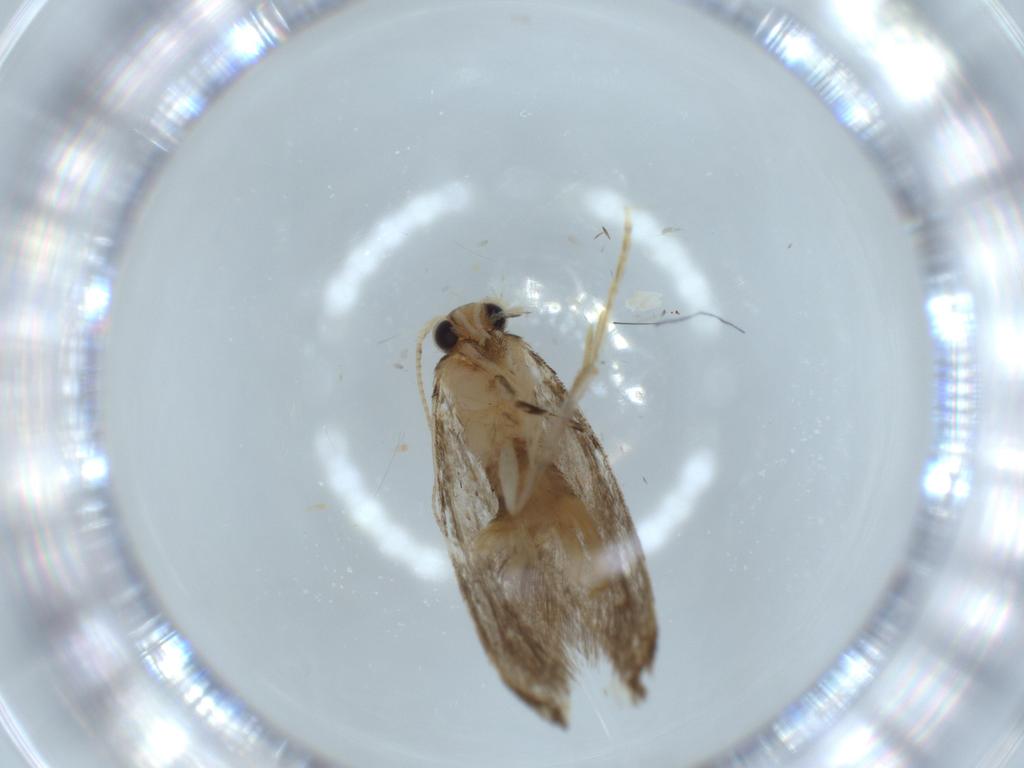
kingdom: Animalia
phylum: Arthropoda
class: Insecta
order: Lepidoptera
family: Tineidae
